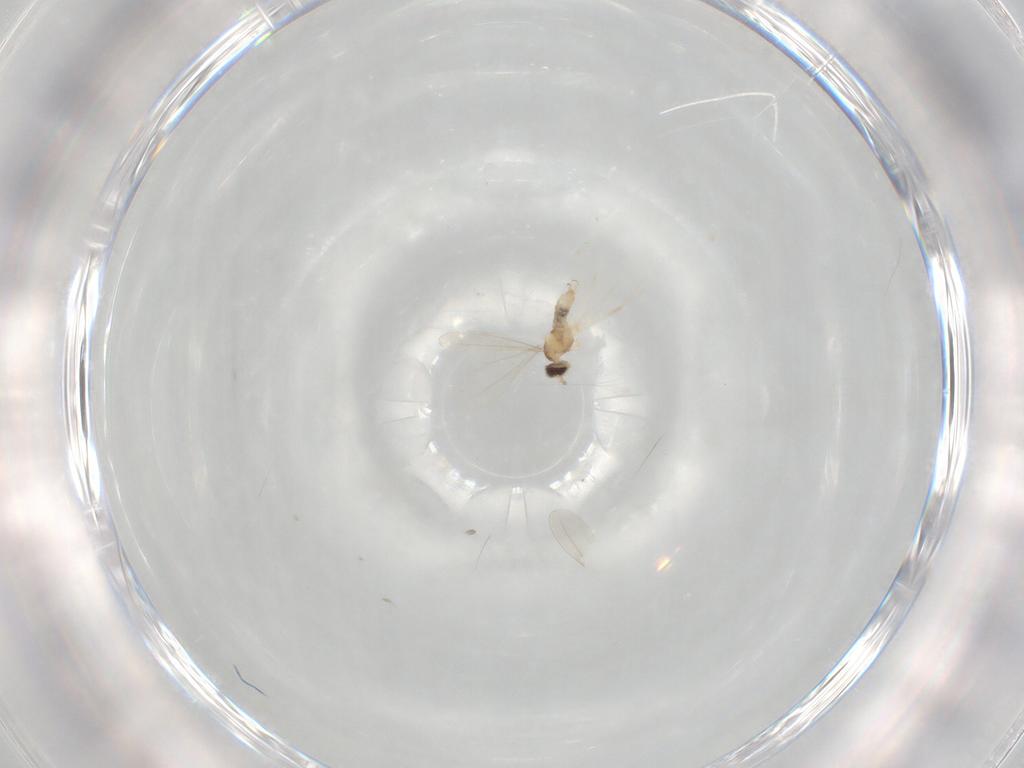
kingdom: Animalia
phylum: Arthropoda
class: Insecta
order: Diptera
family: Cecidomyiidae
